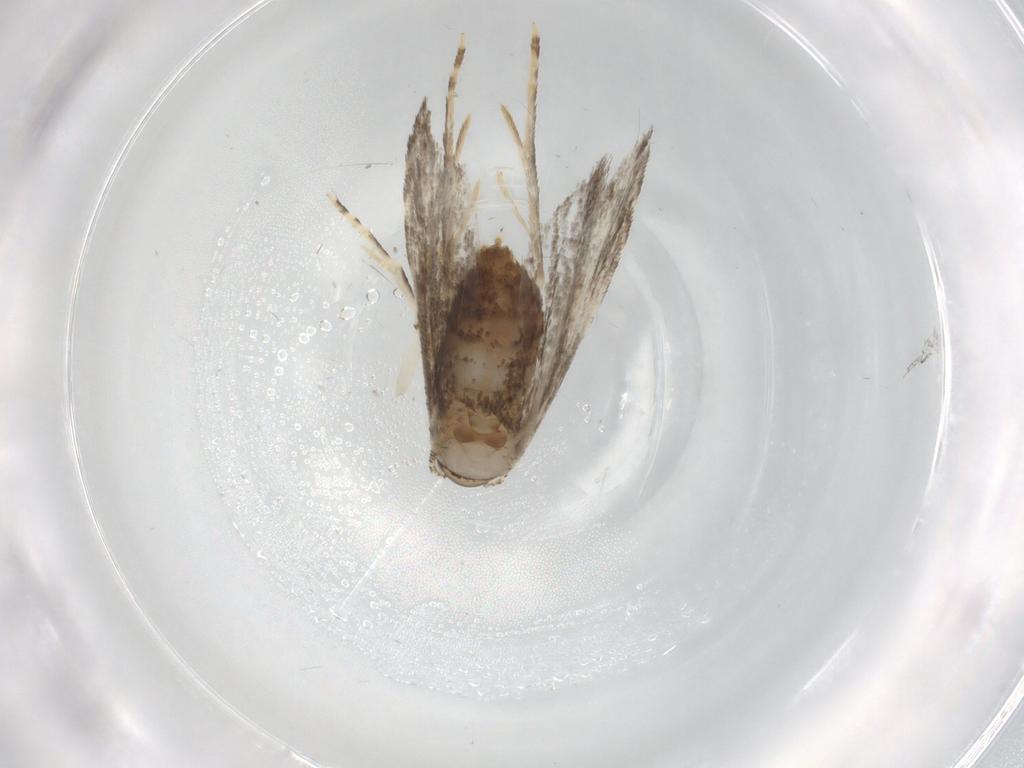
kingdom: Animalia
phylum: Arthropoda
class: Insecta
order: Lepidoptera
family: Tineidae
